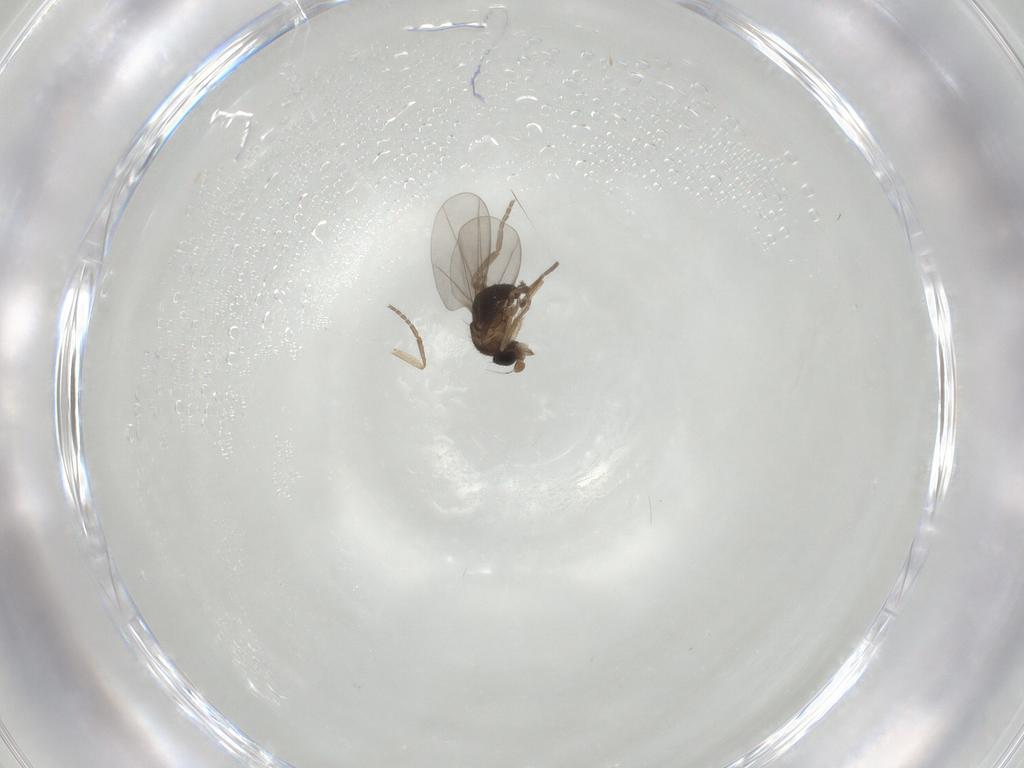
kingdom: Animalia
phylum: Arthropoda
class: Insecta
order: Diptera
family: Phoridae
